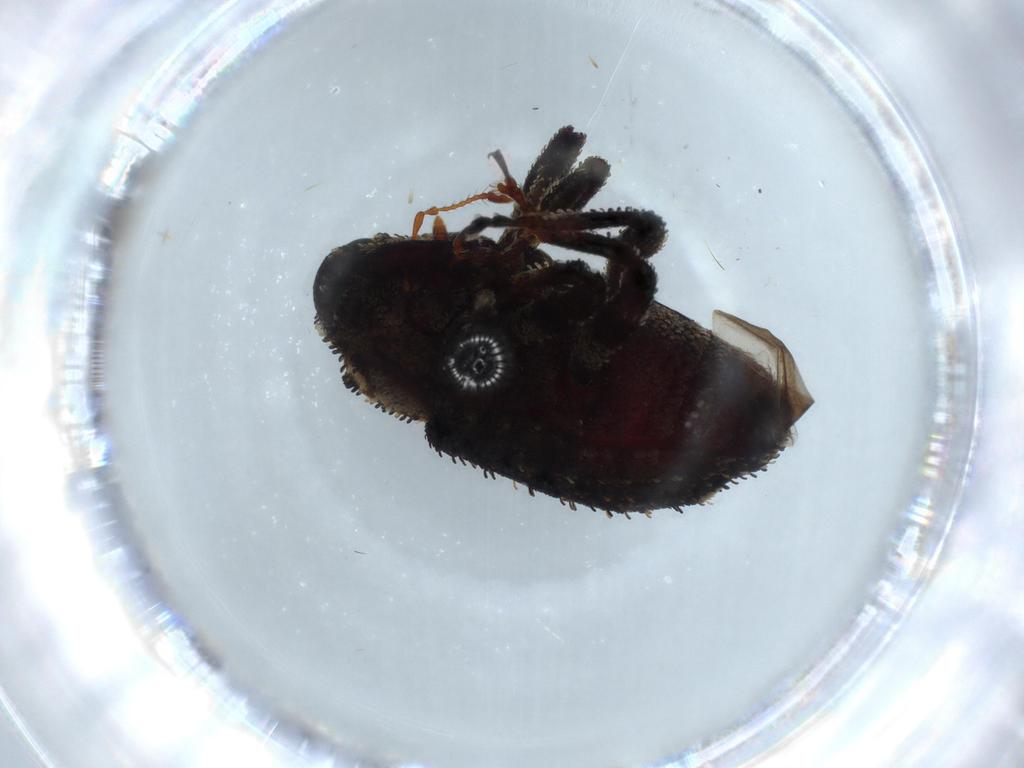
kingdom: Animalia
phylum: Arthropoda
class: Insecta
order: Coleoptera
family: Curculionidae
